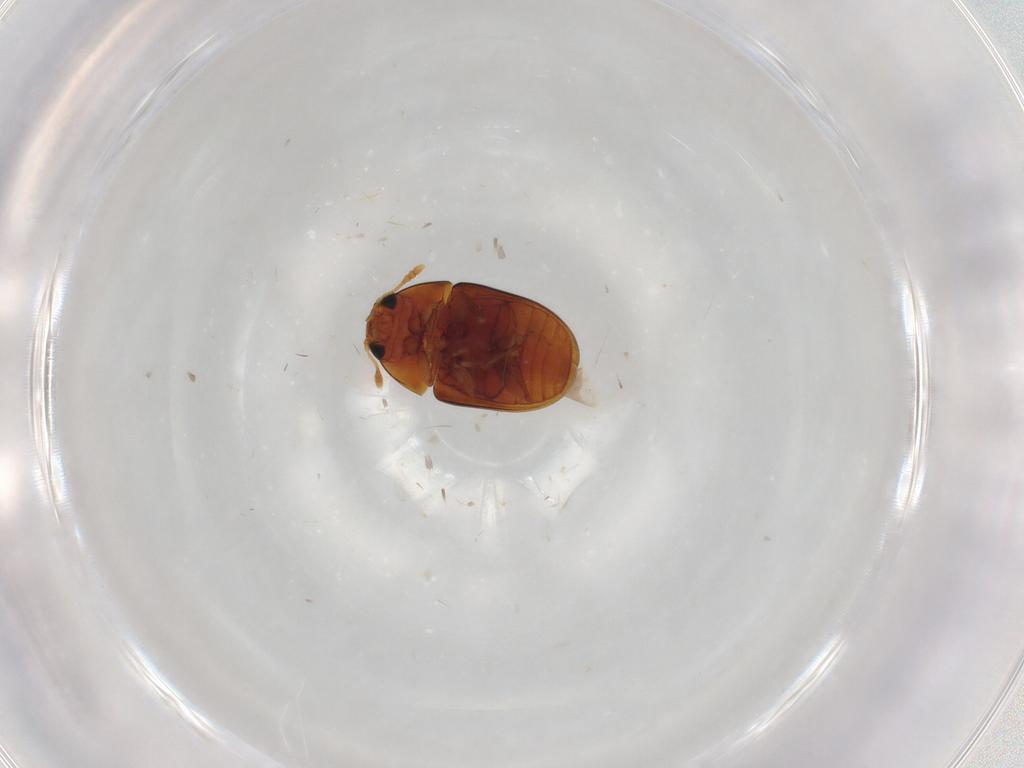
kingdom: Animalia
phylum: Arthropoda
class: Insecta
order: Coleoptera
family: Phalacridae
